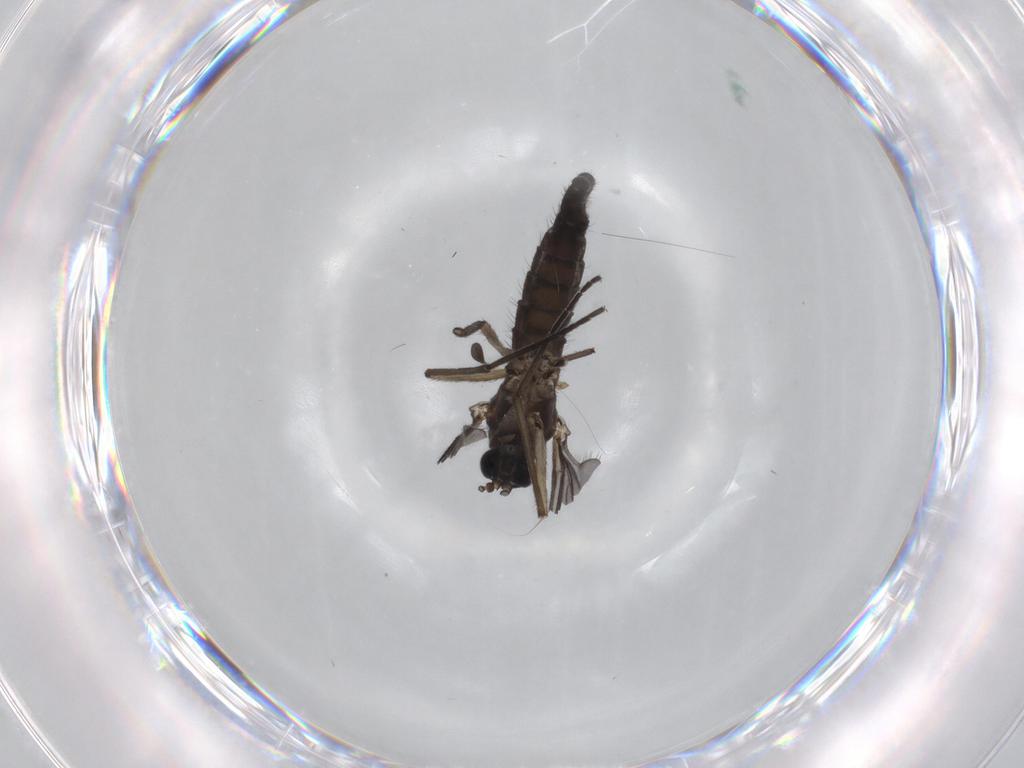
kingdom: Animalia
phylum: Arthropoda
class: Insecta
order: Diptera
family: Sciaridae
